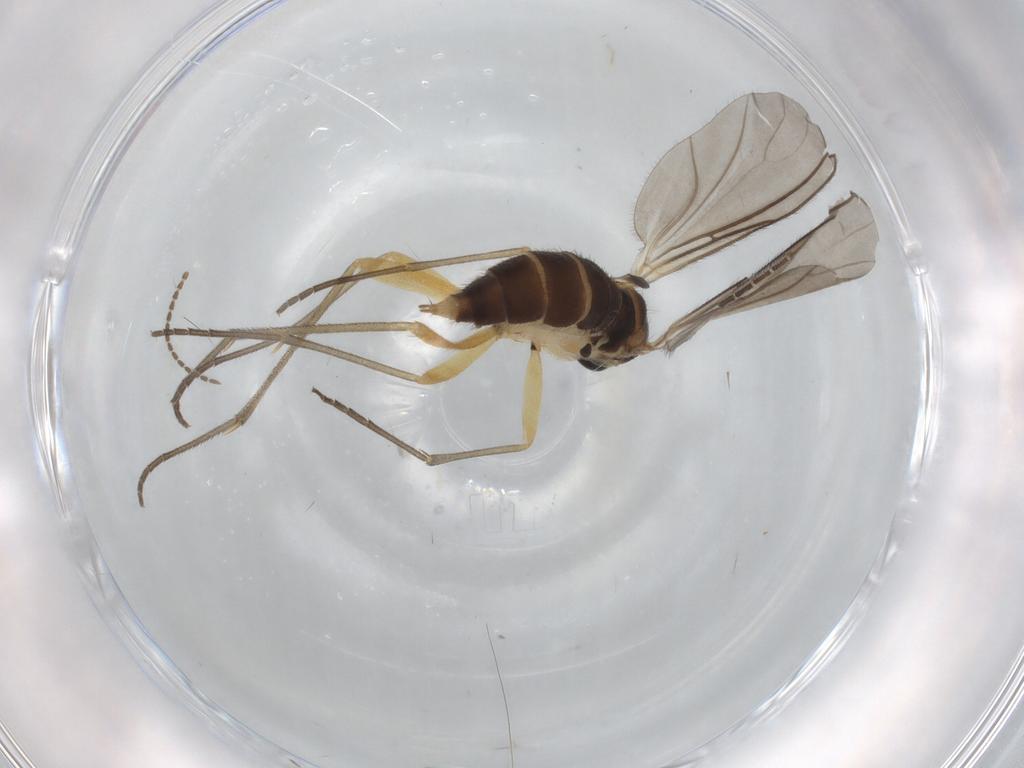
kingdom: Animalia
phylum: Arthropoda
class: Insecta
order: Diptera
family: Sciaridae
